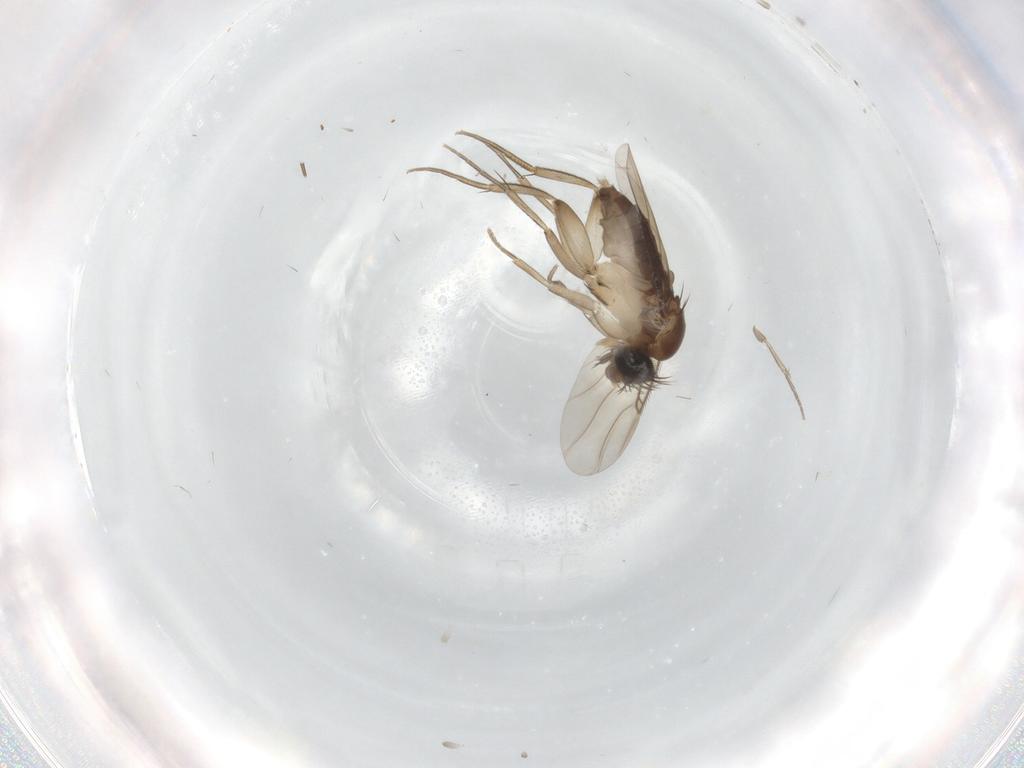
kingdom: Animalia
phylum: Arthropoda
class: Insecta
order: Diptera
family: Phoridae
